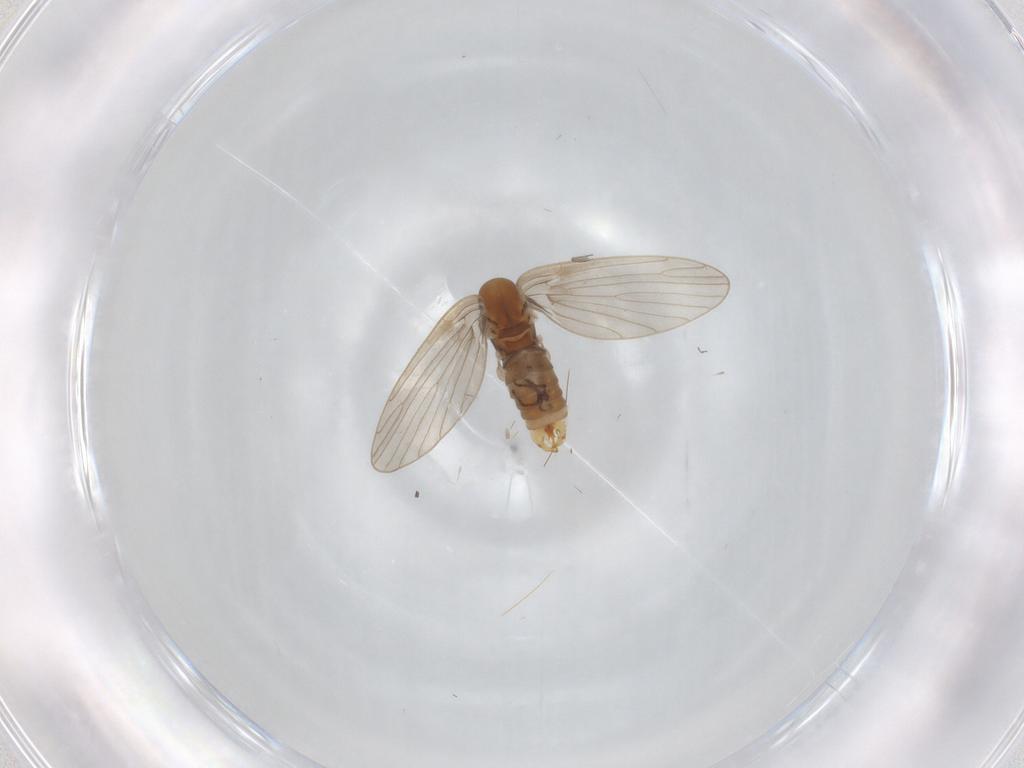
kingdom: Animalia
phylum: Arthropoda
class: Insecta
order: Diptera
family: Psychodidae
